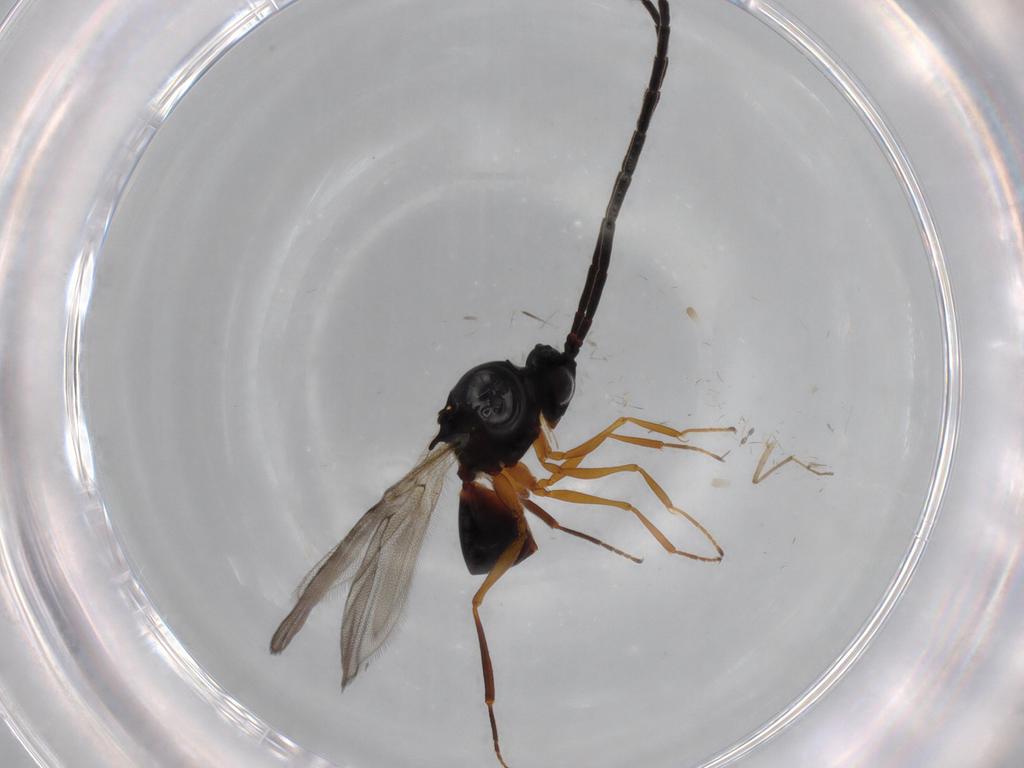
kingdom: Animalia
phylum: Arthropoda
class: Insecta
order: Hymenoptera
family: Figitidae
